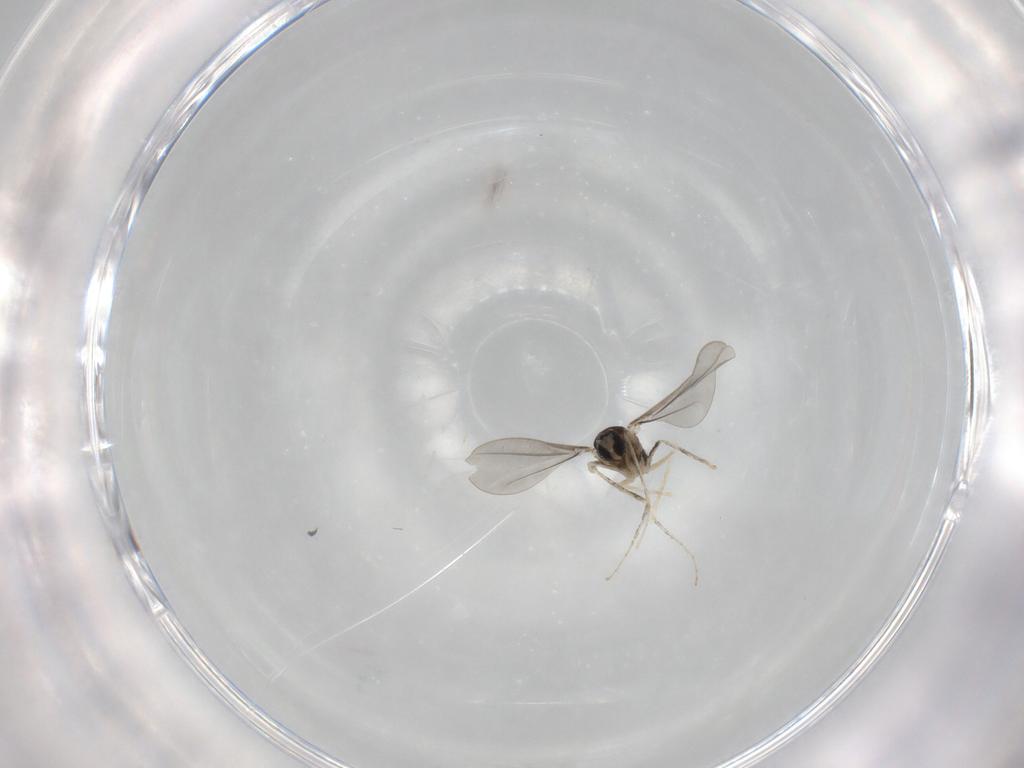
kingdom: Animalia
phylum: Arthropoda
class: Insecta
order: Diptera
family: Cecidomyiidae
